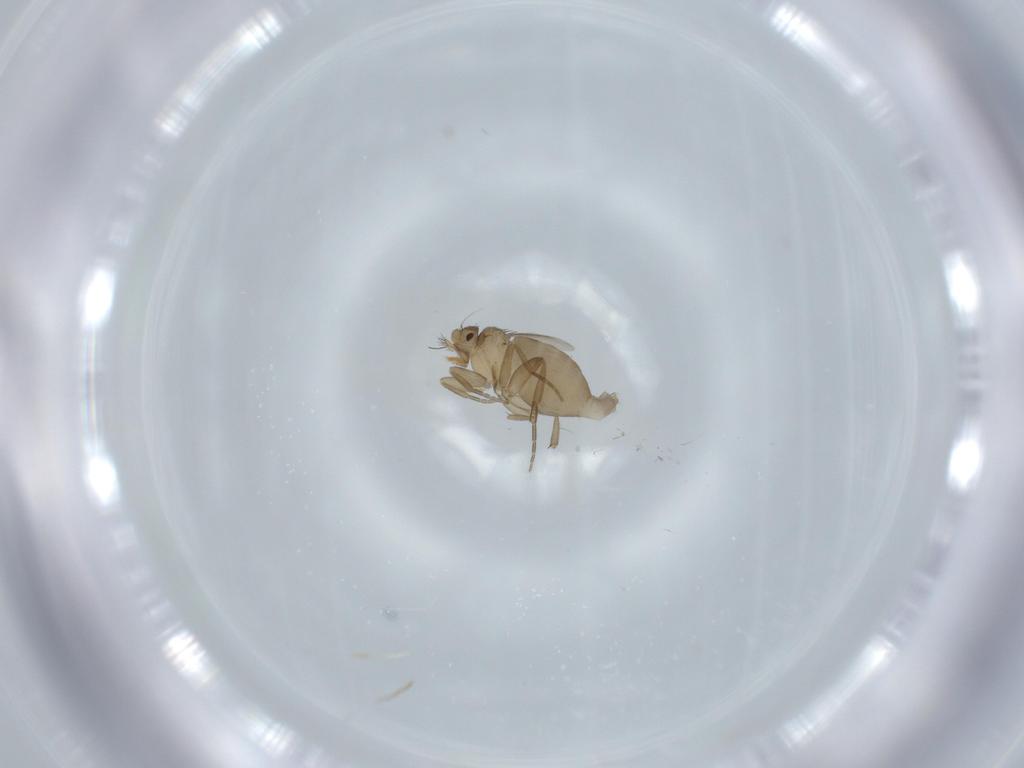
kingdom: Animalia
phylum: Arthropoda
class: Insecta
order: Diptera
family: Phoridae
